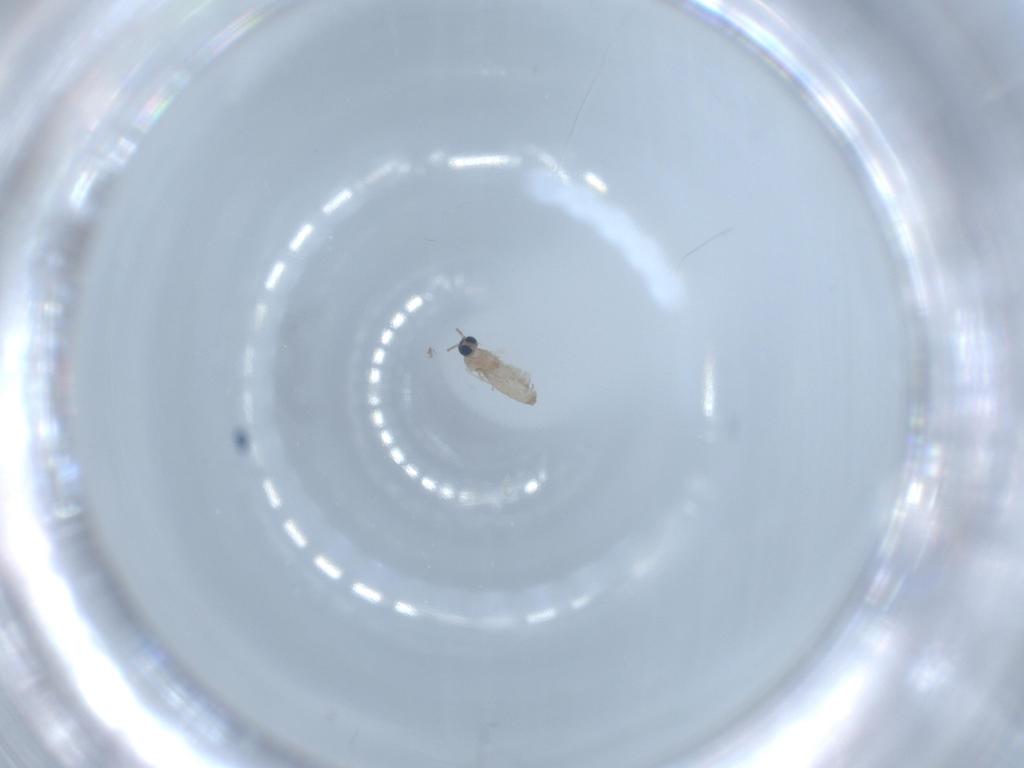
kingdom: Animalia
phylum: Arthropoda
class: Insecta
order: Diptera
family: Cecidomyiidae
